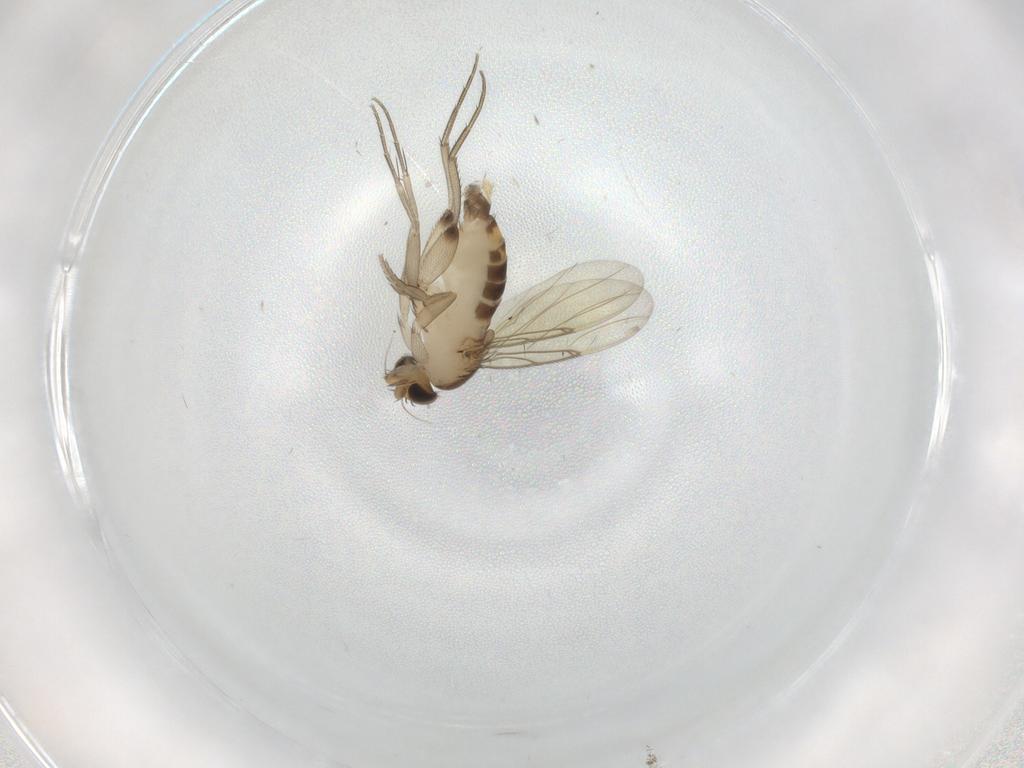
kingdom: Animalia
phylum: Arthropoda
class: Insecta
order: Diptera
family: Phoridae
